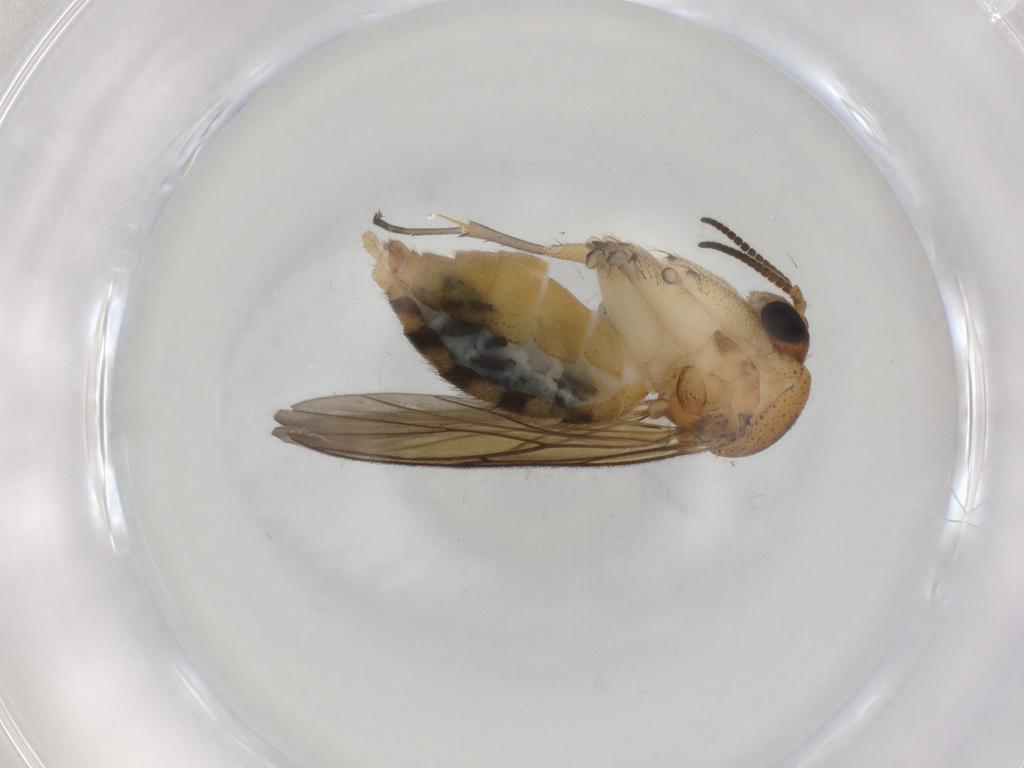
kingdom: Animalia
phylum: Arthropoda
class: Insecta
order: Diptera
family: Mycetophilidae
